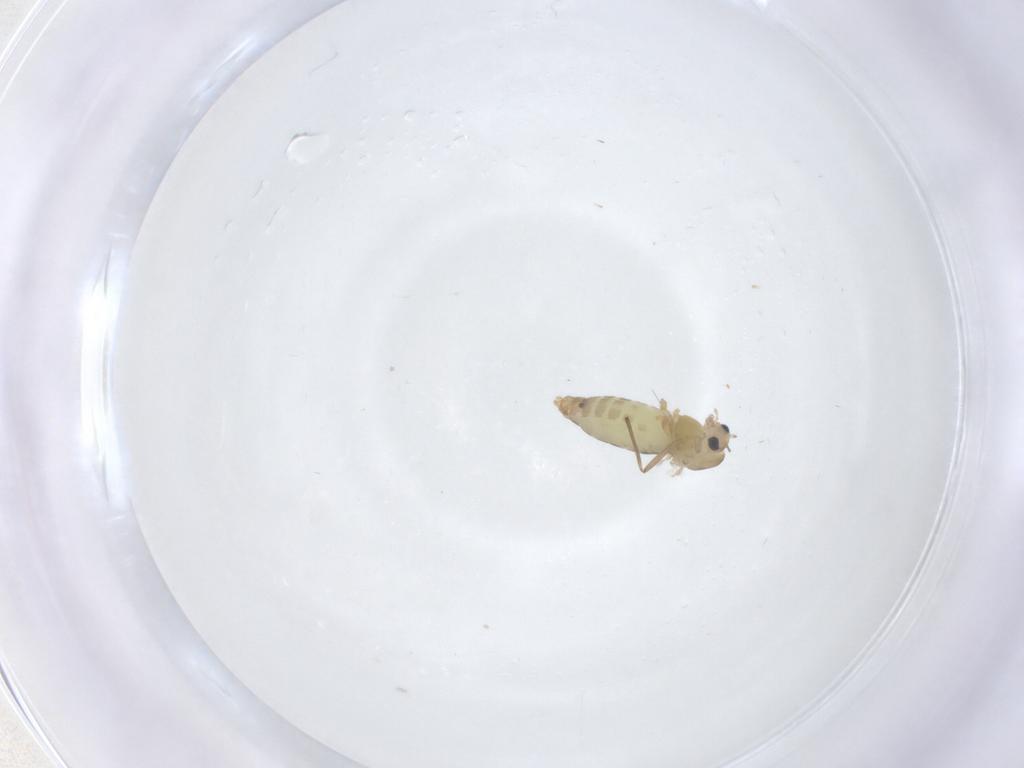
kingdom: Animalia
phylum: Arthropoda
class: Insecta
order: Diptera
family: Chironomidae
